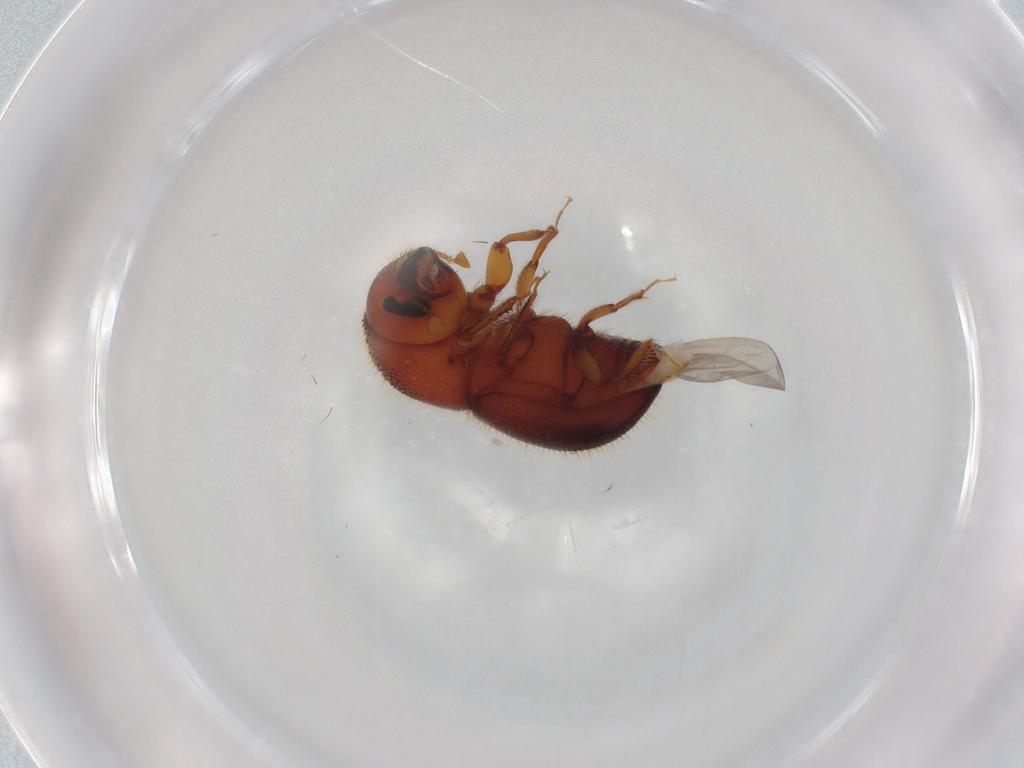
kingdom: Animalia
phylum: Arthropoda
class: Insecta
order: Coleoptera
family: Curculionidae
